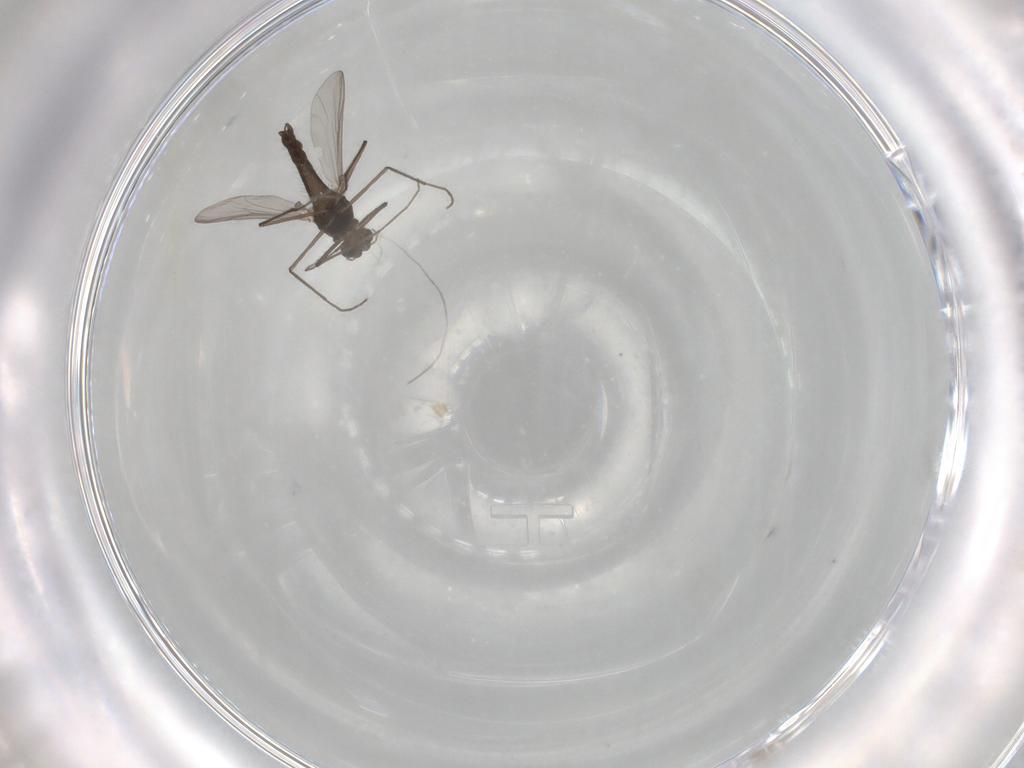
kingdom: Animalia
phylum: Arthropoda
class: Insecta
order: Diptera
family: Chironomidae
